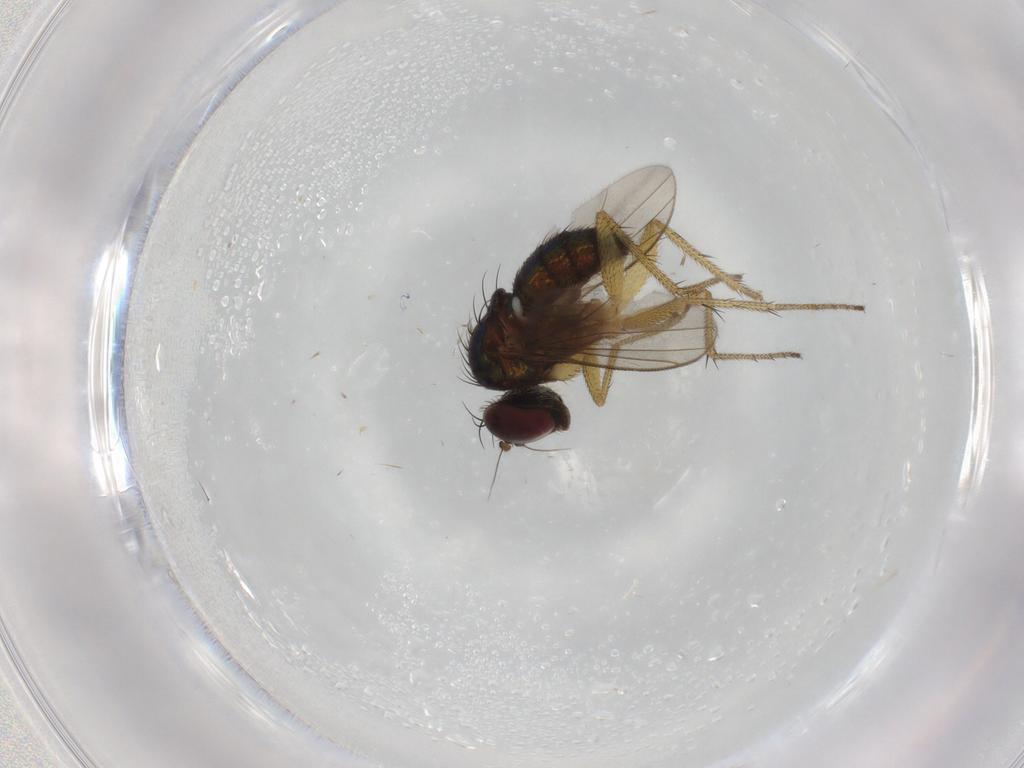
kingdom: Animalia
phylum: Arthropoda
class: Insecta
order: Diptera
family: Dolichopodidae
